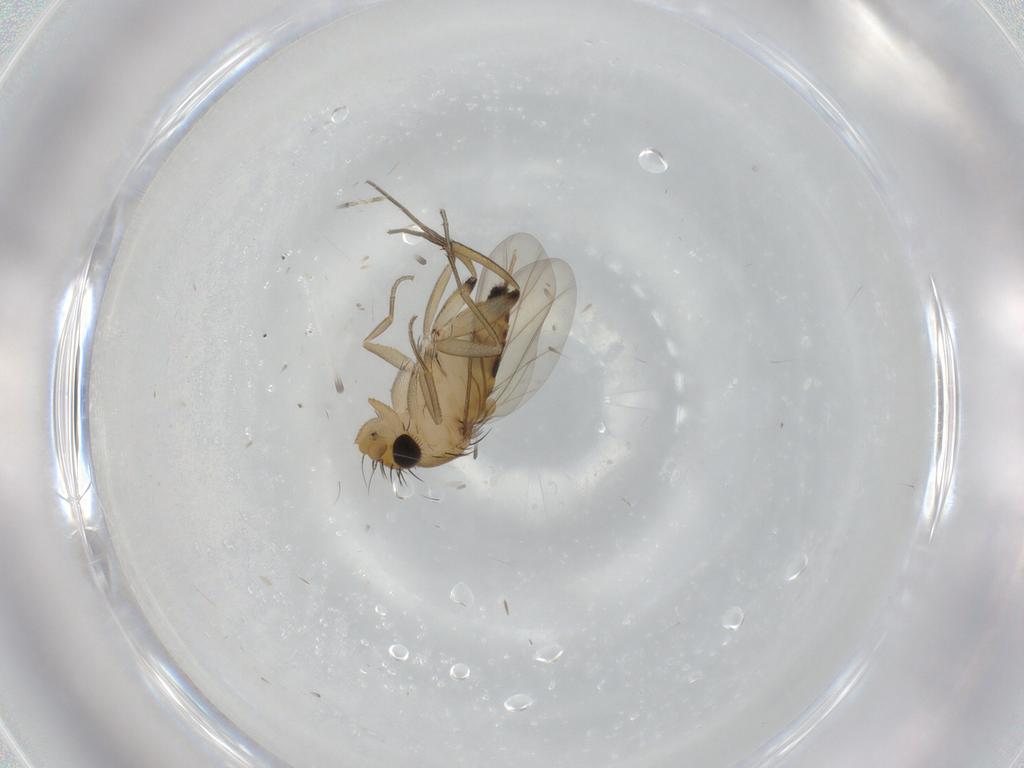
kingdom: Animalia
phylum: Arthropoda
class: Insecta
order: Diptera
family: Phoridae
